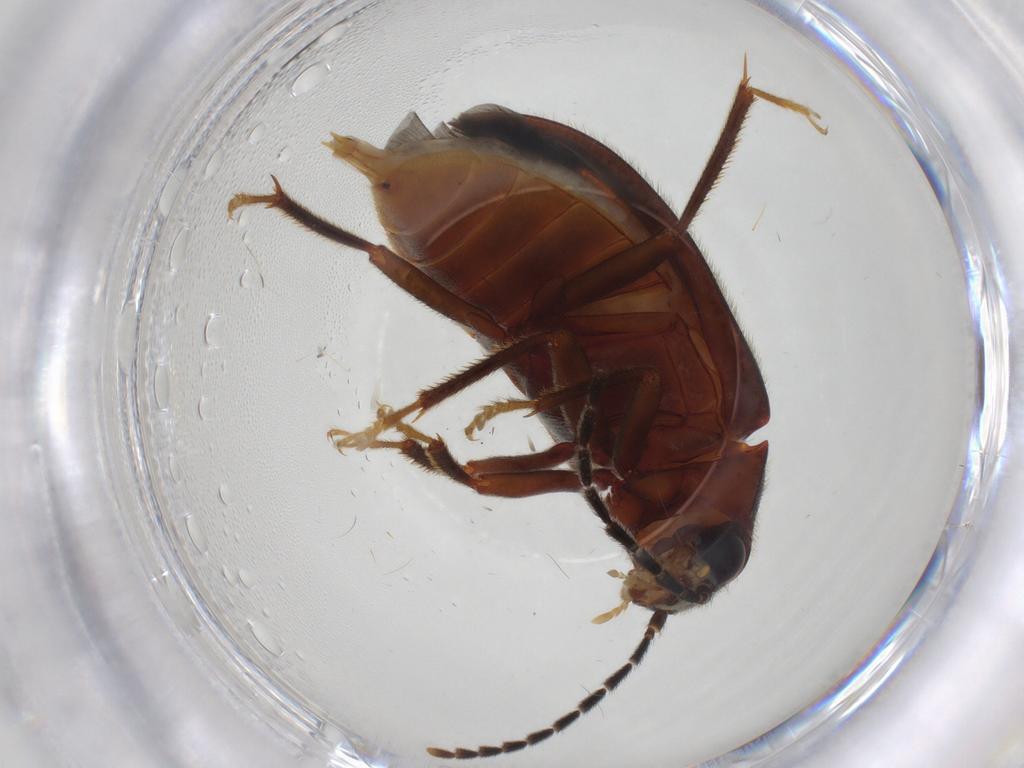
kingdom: Animalia
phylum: Arthropoda
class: Insecta
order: Coleoptera
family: Ptilodactylidae
